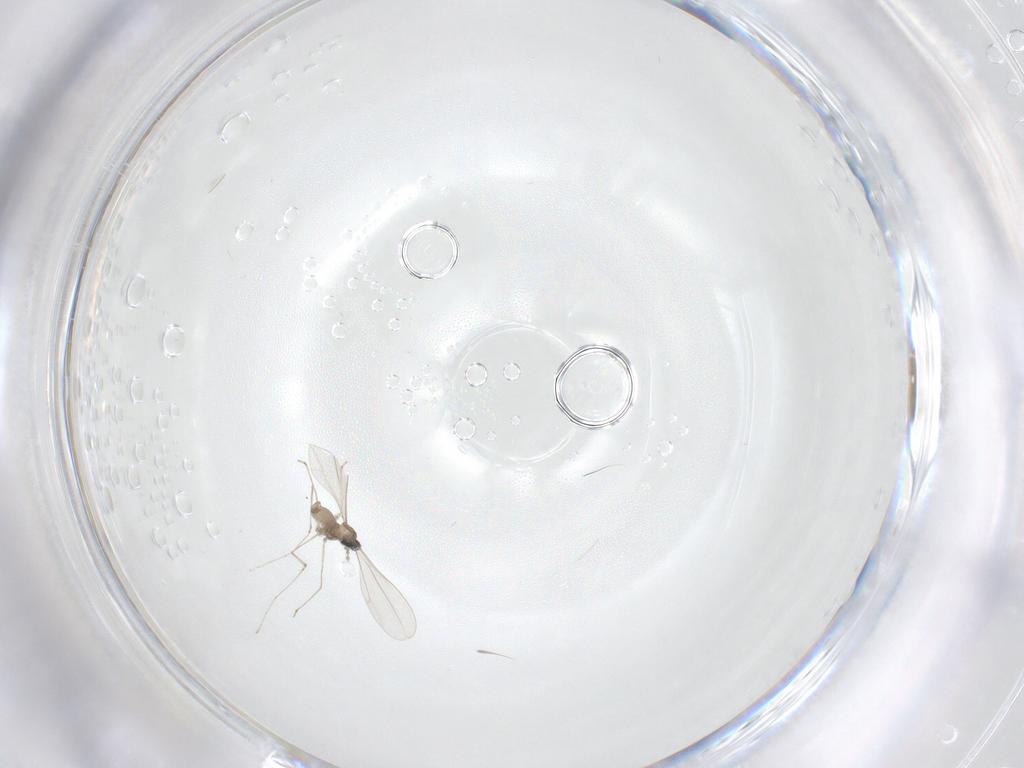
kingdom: Animalia
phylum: Arthropoda
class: Insecta
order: Diptera
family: Cecidomyiidae
